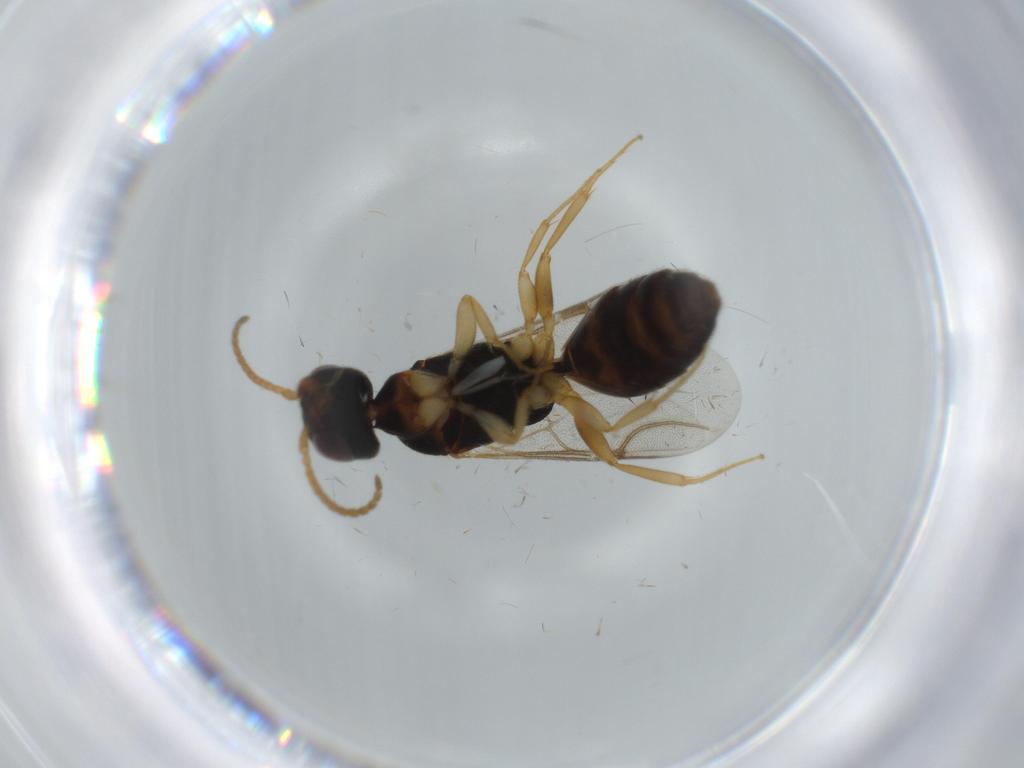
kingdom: Animalia
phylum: Arthropoda
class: Insecta
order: Hymenoptera
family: Bethylidae
